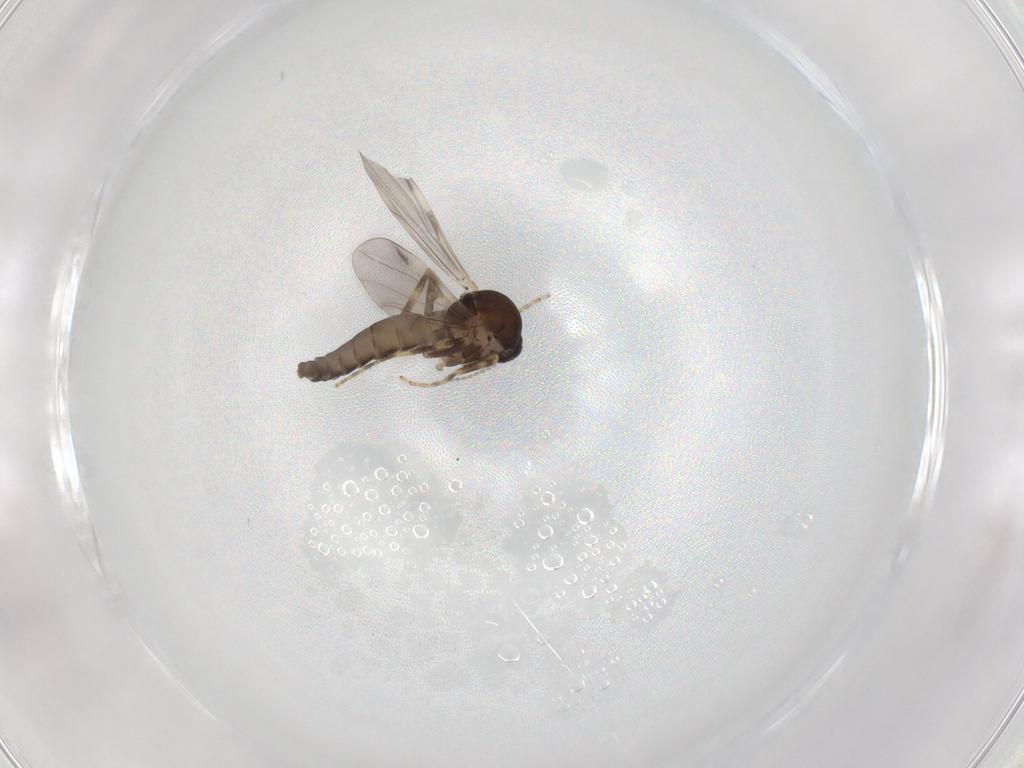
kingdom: Animalia
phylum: Arthropoda
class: Insecta
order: Diptera
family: Ceratopogonidae
